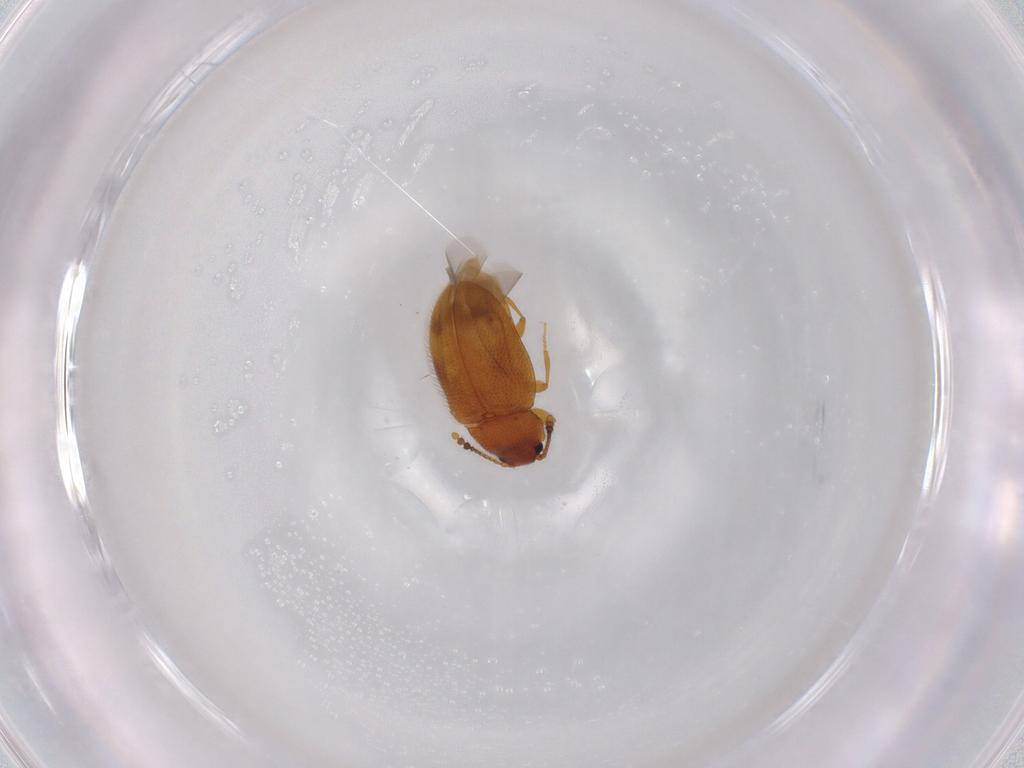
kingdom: Animalia
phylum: Arthropoda
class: Insecta
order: Coleoptera
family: Erotylidae
